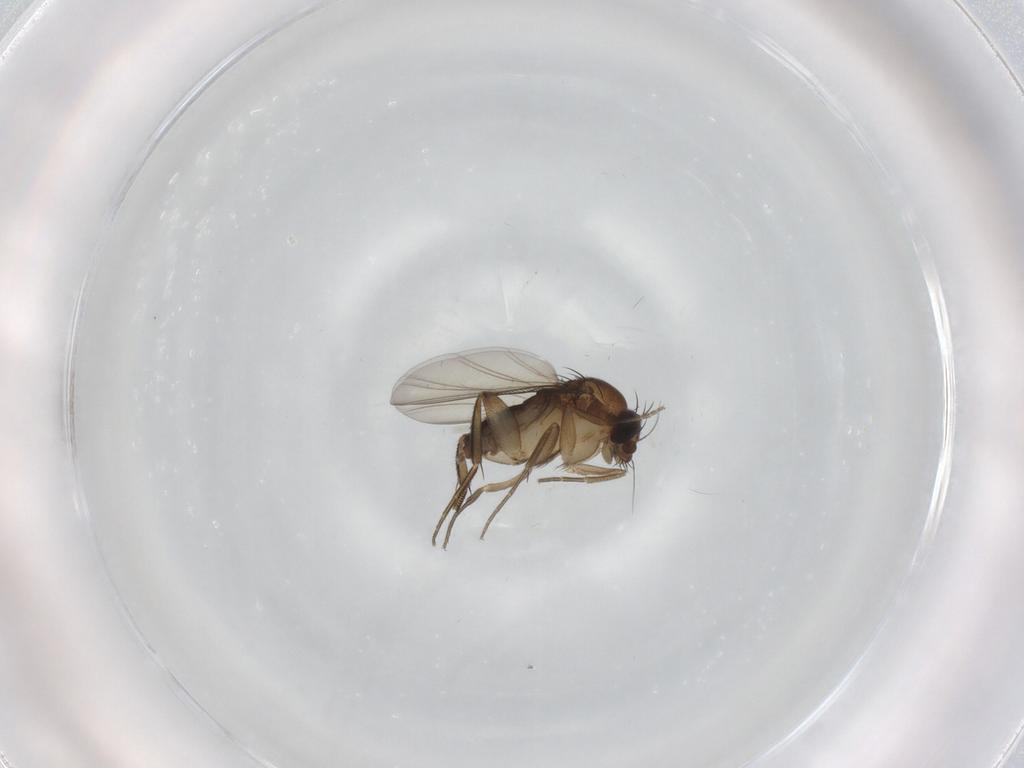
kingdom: Animalia
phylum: Arthropoda
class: Insecta
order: Diptera
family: Phoridae
